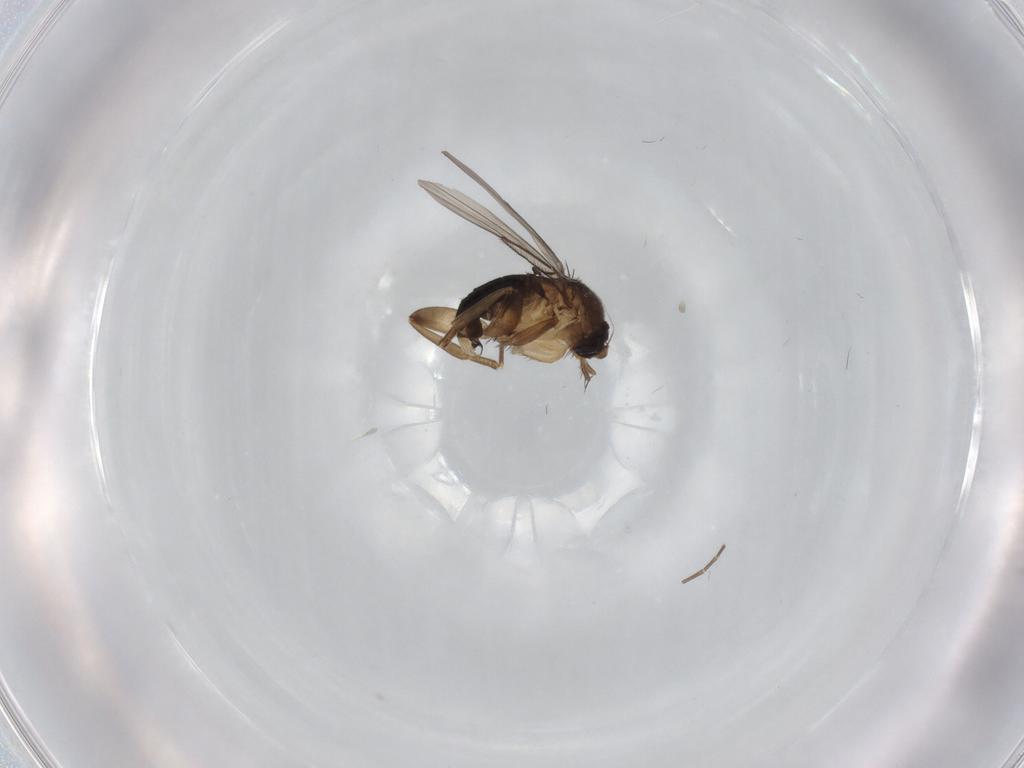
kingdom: Animalia
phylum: Arthropoda
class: Insecta
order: Diptera
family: Phoridae
